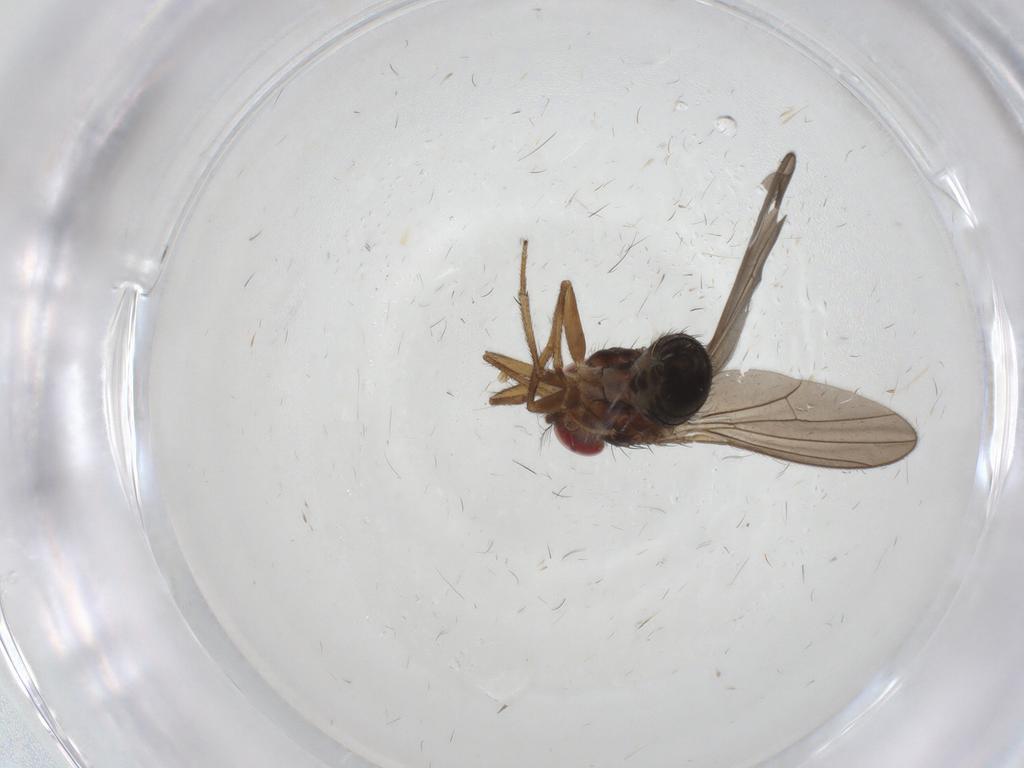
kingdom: Animalia
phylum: Arthropoda
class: Insecta
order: Diptera
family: Drosophilidae
